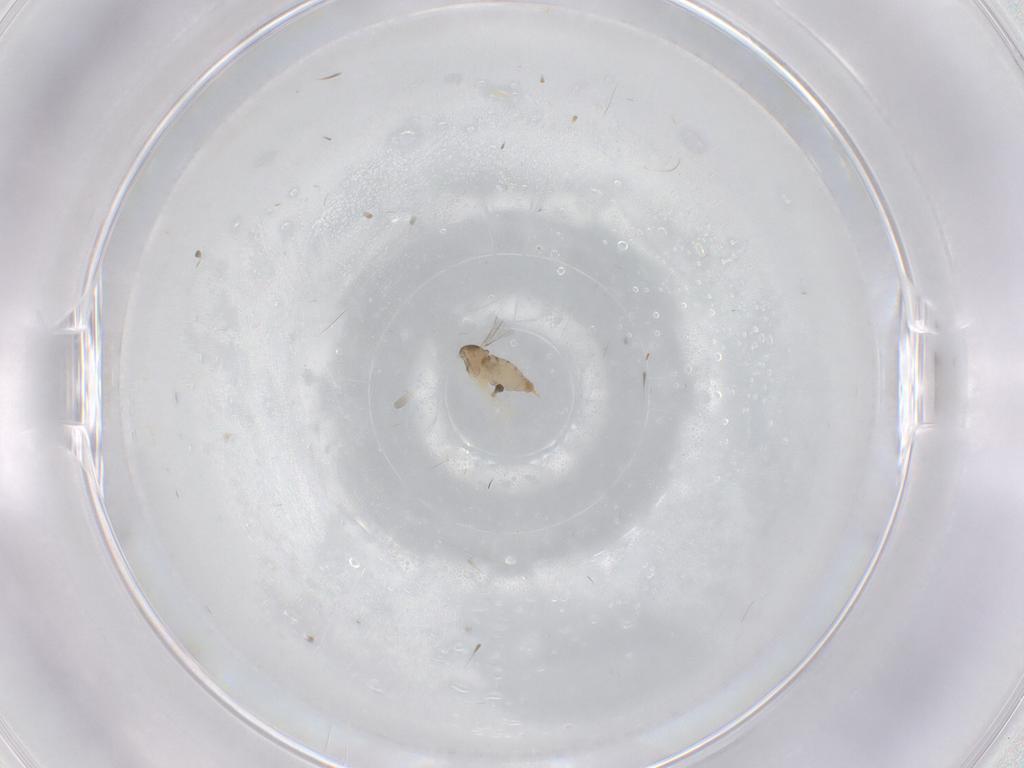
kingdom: Animalia
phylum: Arthropoda
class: Insecta
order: Diptera
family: Phoridae
